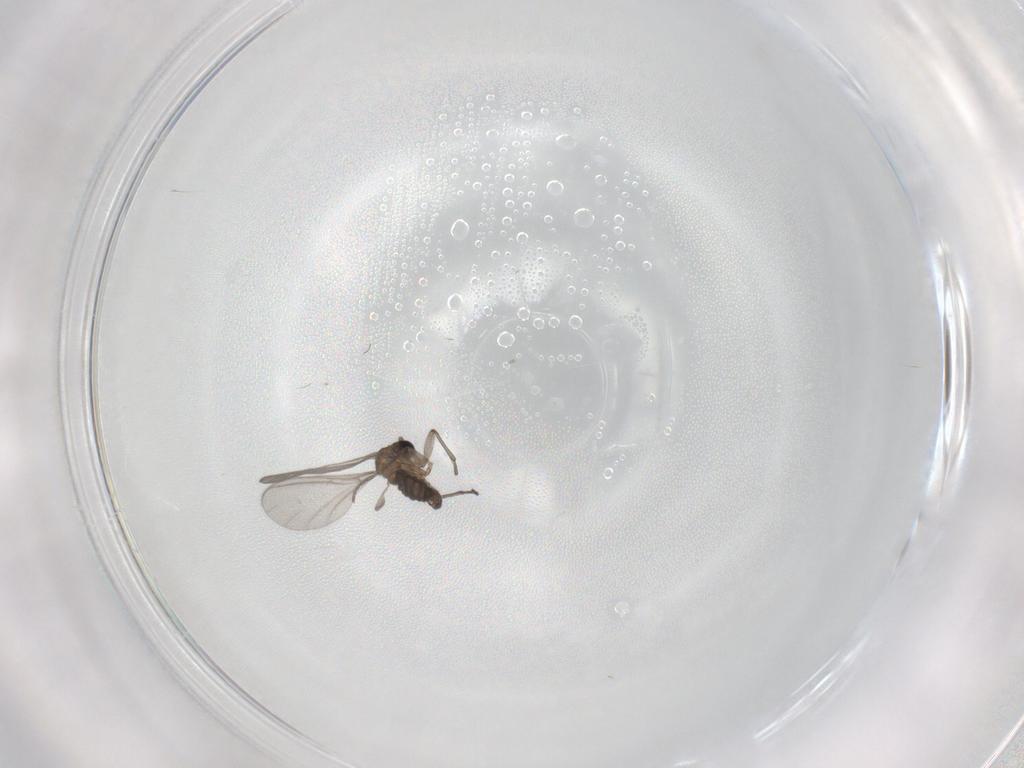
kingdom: Animalia
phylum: Arthropoda
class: Insecta
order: Diptera
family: Sciaridae
